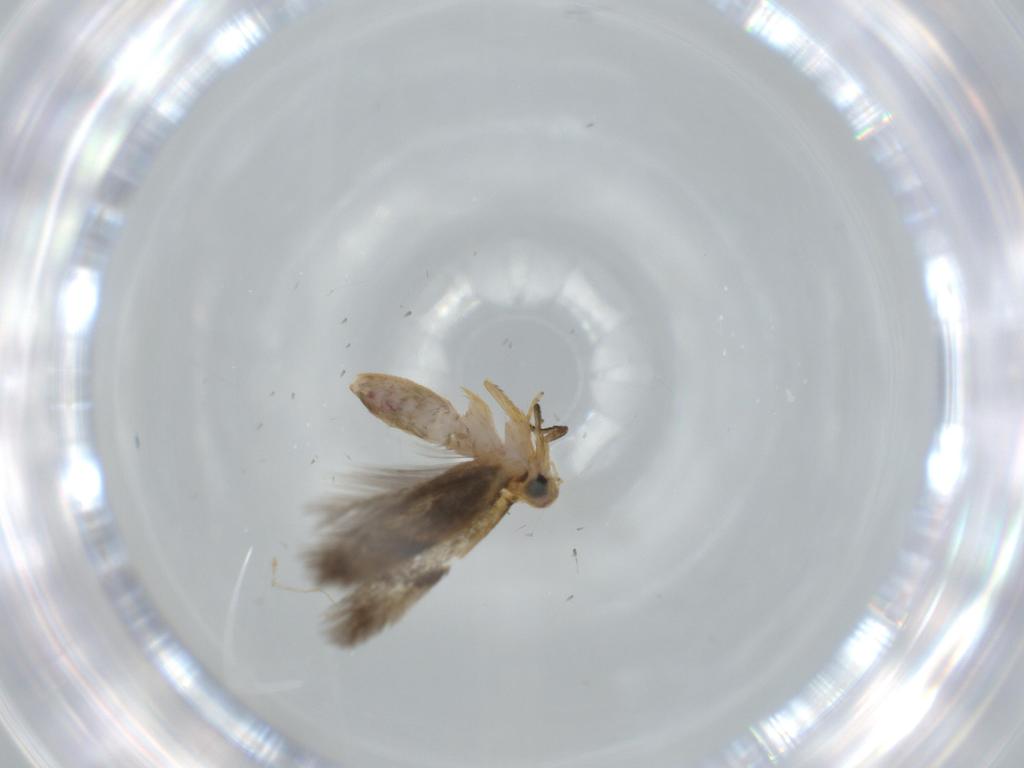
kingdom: Animalia
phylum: Arthropoda
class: Insecta
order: Lepidoptera
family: Nepticulidae
